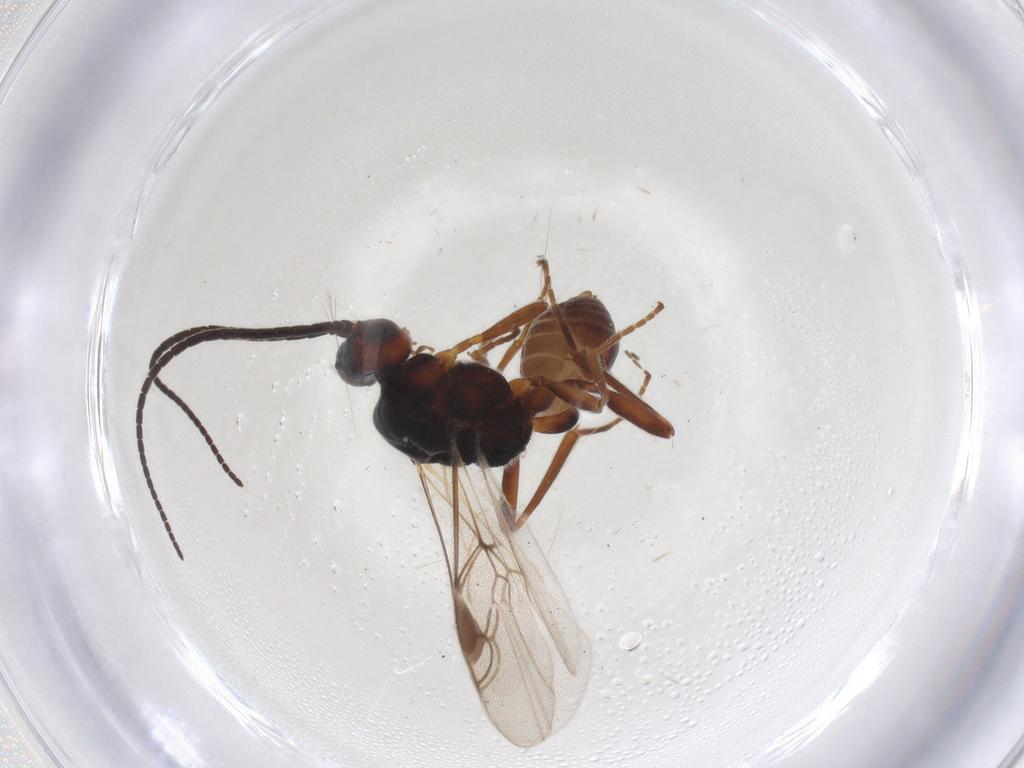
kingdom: Animalia
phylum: Arthropoda
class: Insecta
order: Hymenoptera
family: Braconidae
